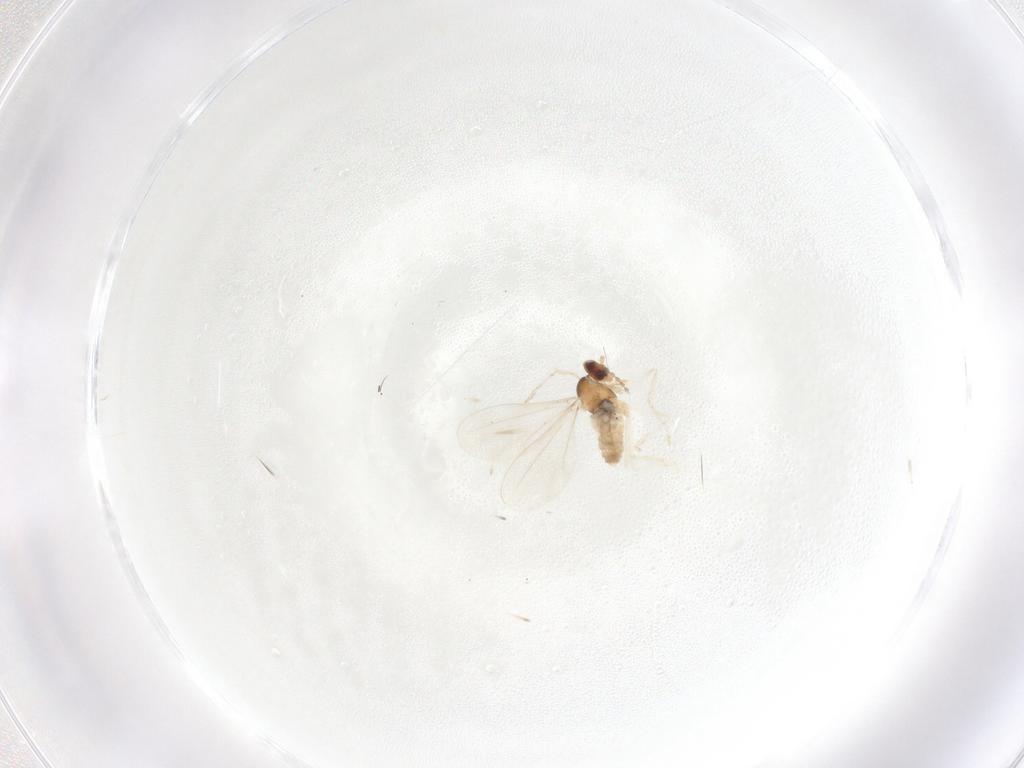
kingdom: Animalia
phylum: Arthropoda
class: Insecta
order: Diptera
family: Cecidomyiidae
